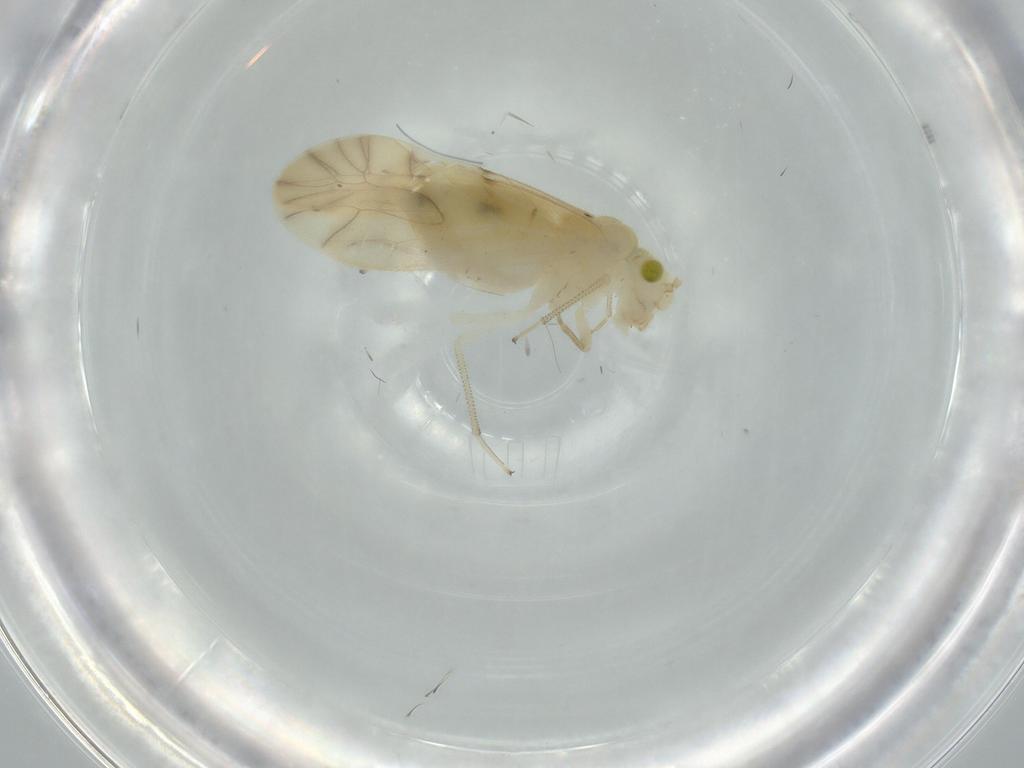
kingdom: Animalia
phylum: Arthropoda
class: Insecta
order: Psocodea
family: Caeciliusidae
